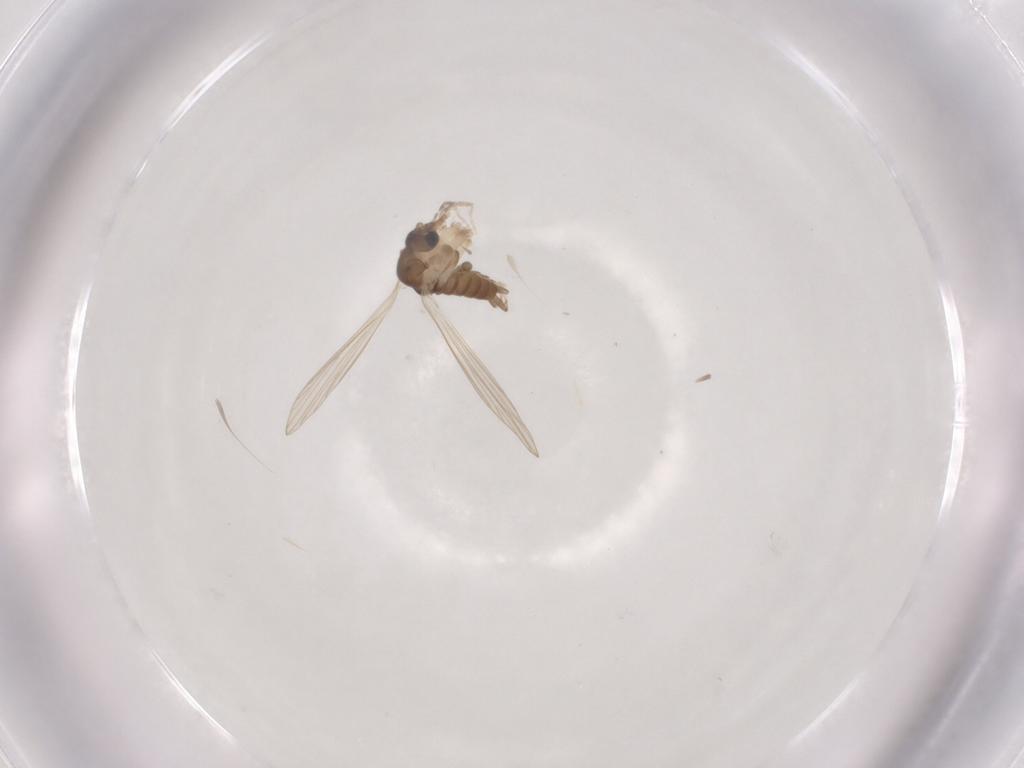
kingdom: Animalia
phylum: Arthropoda
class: Insecta
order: Diptera
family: Psychodidae
